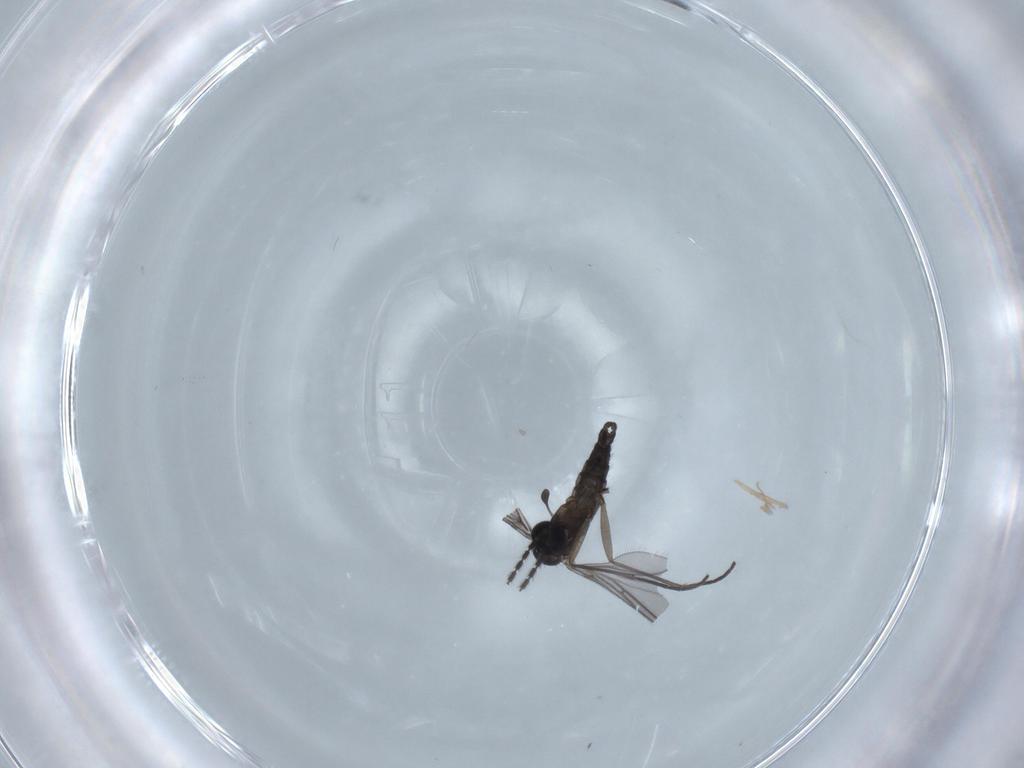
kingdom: Animalia
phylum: Arthropoda
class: Insecta
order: Diptera
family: Sciaridae
